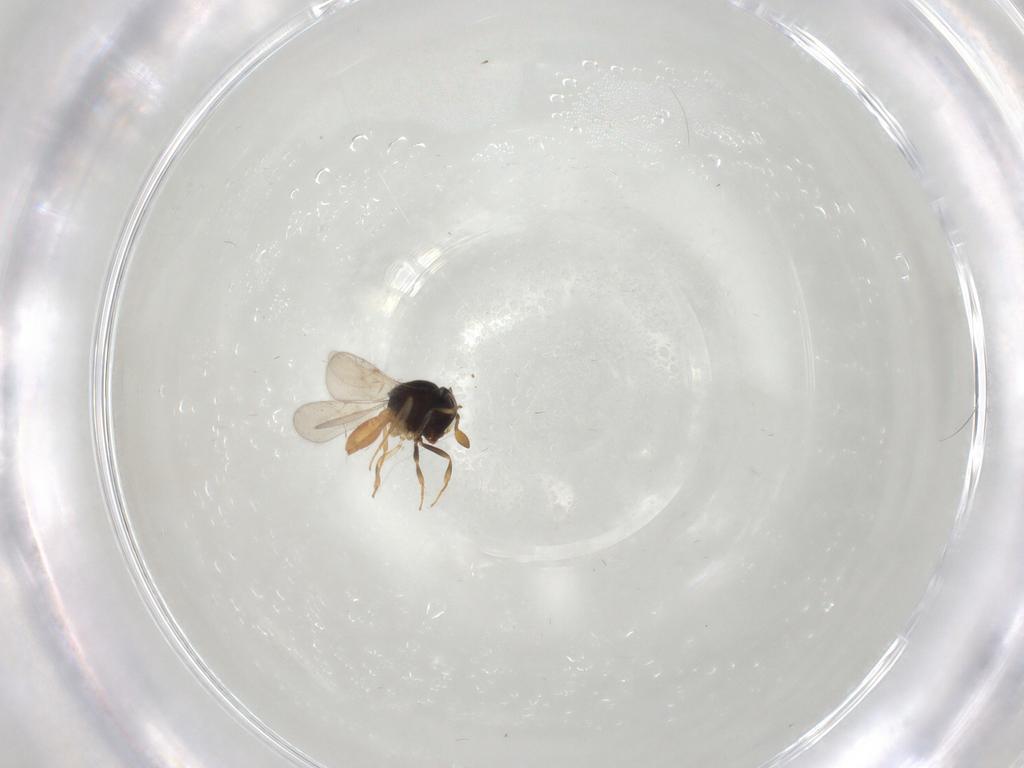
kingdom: Animalia
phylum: Arthropoda
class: Insecta
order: Hymenoptera
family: Scelionidae
